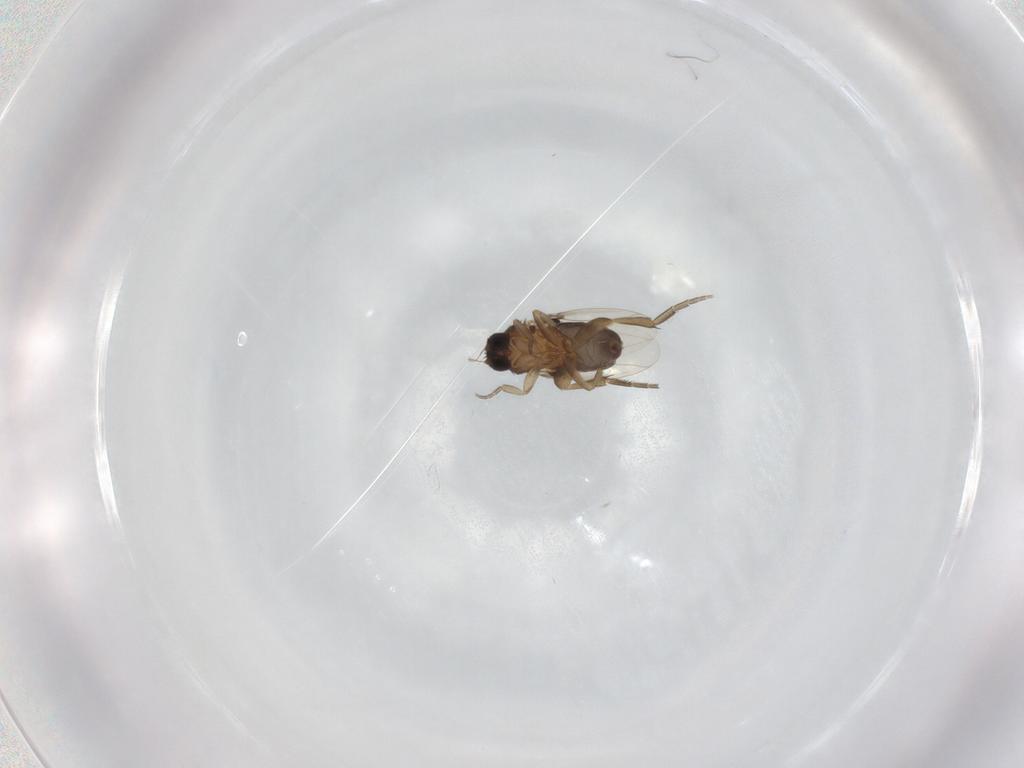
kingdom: Animalia
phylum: Arthropoda
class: Insecta
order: Diptera
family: Phoridae
